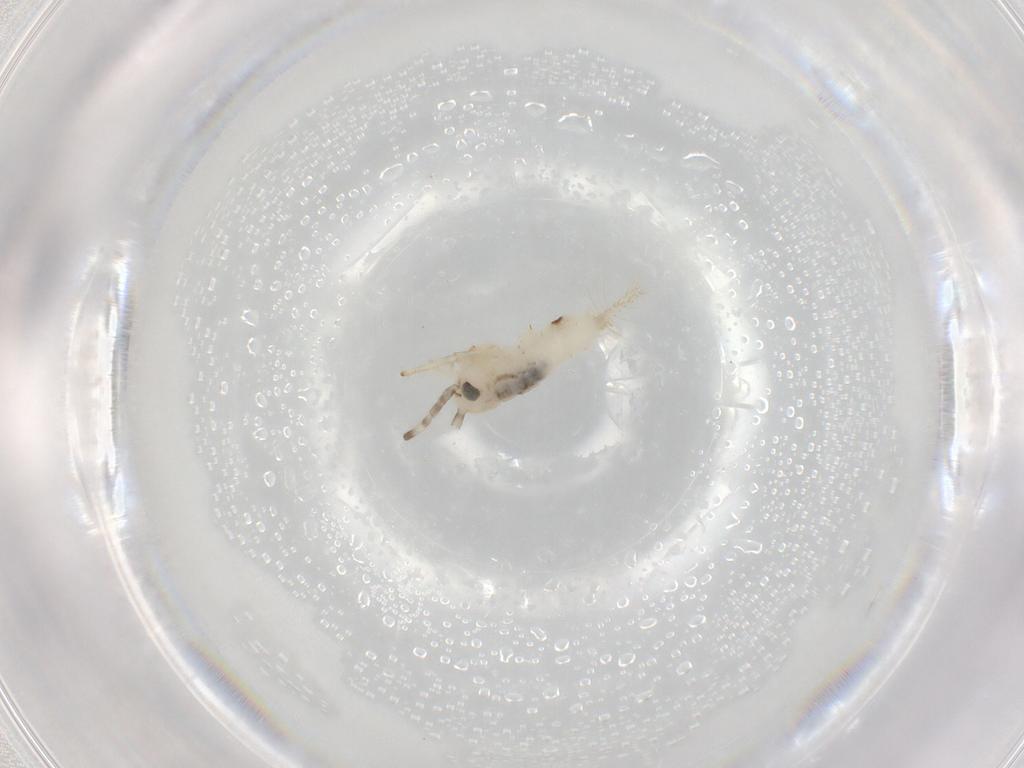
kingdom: Animalia
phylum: Arthropoda
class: Insecta
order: Orthoptera
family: Trigonidiidae
